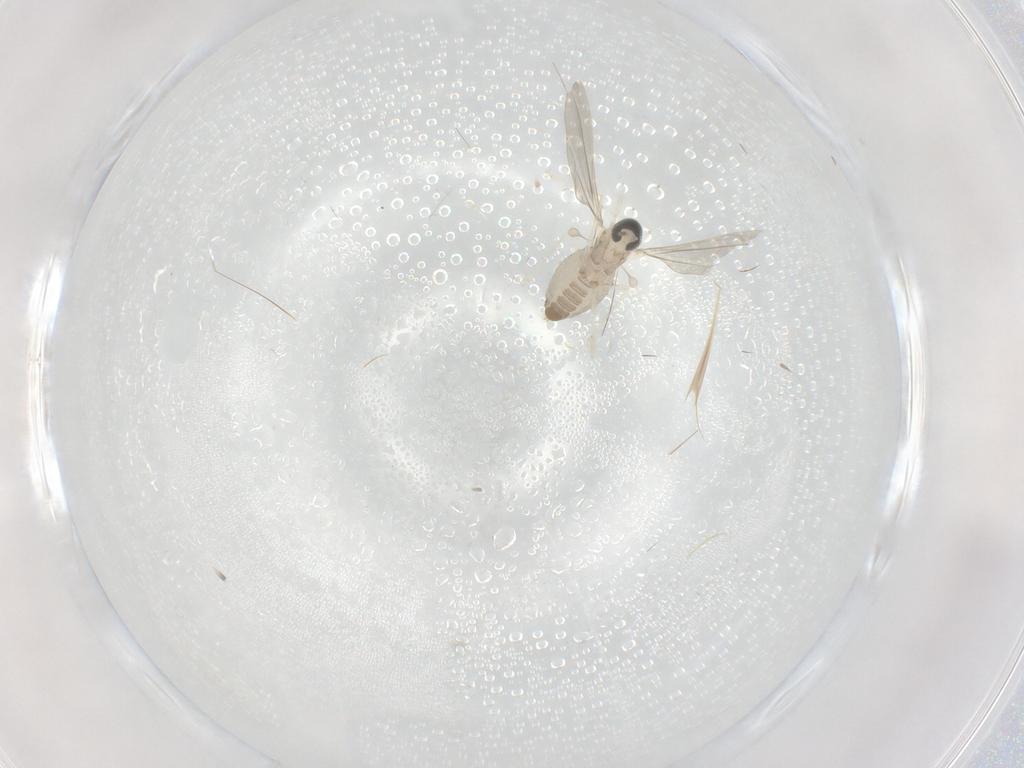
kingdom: Animalia
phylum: Arthropoda
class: Insecta
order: Diptera
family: Cecidomyiidae
